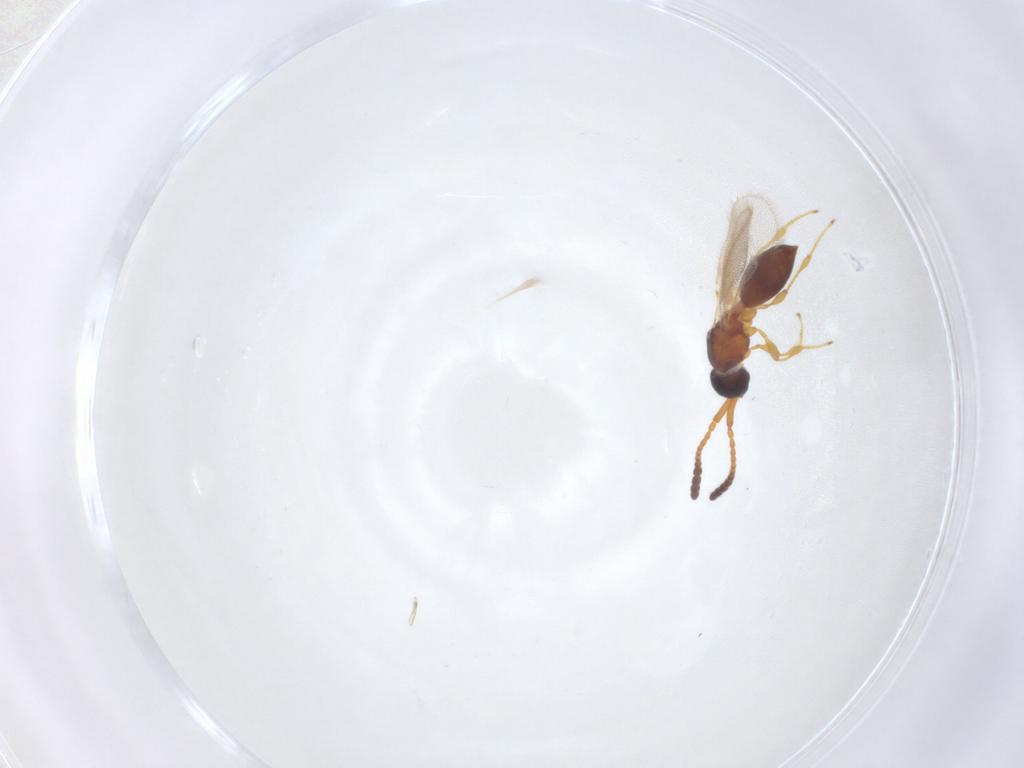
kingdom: Animalia
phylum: Arthropoda
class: Insecta
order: Hymenoptera
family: Diapriidae
